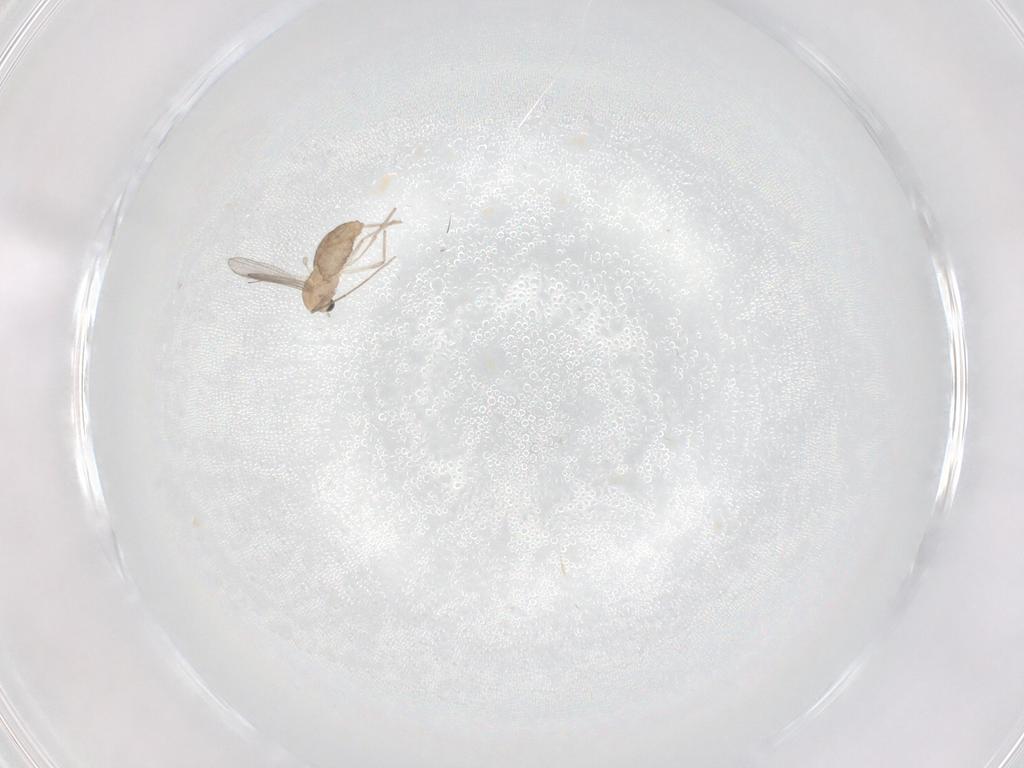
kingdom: Animalia
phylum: Arthropoda
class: Insecta
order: Diptera
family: Chironomidae
